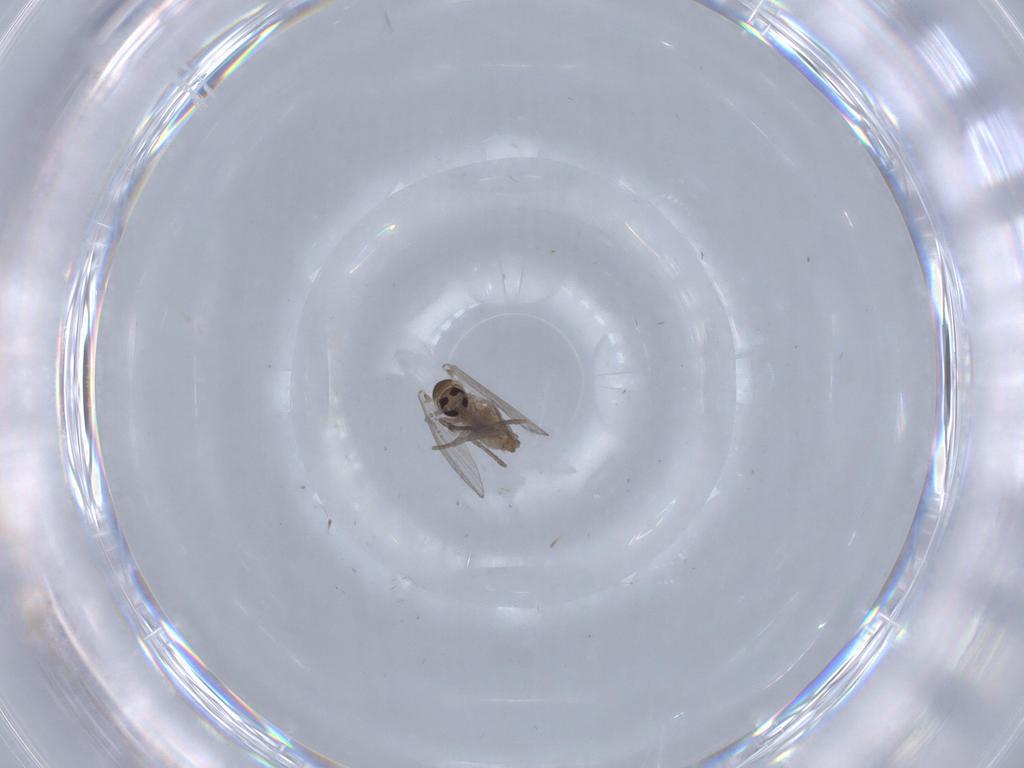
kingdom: Animalia
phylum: Arthropoda
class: Insecta
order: Diptera
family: Psychodidae
